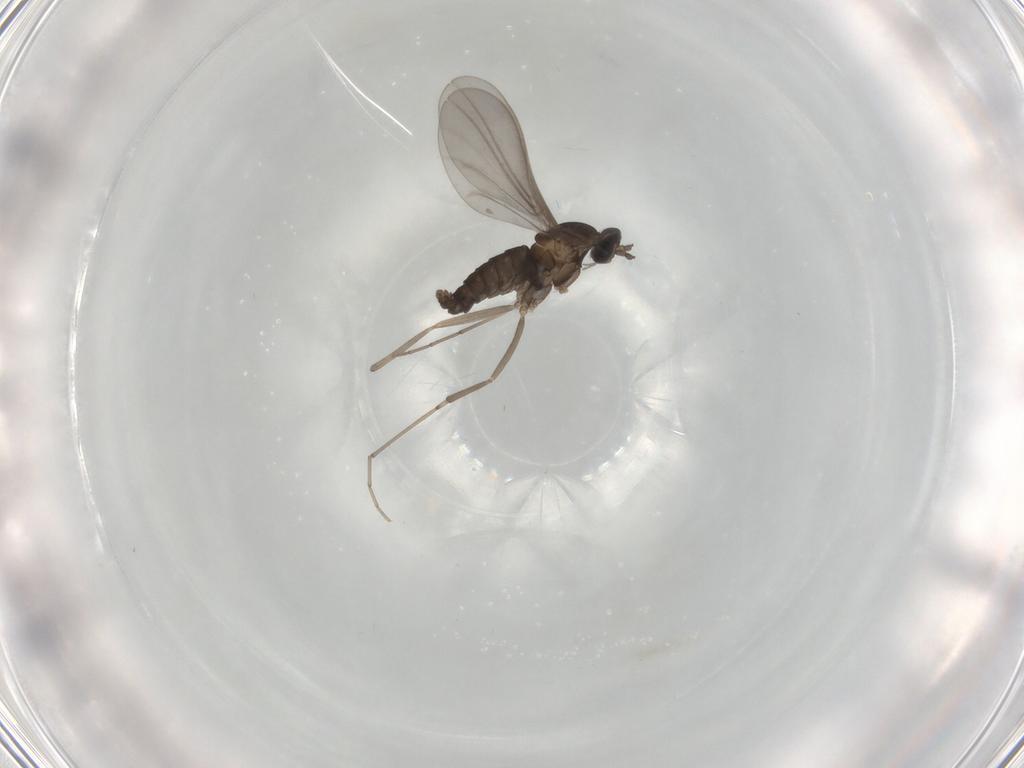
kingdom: Animalia
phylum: Arthropoda
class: Insecta
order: Diptera
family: Cecidomyiidae
